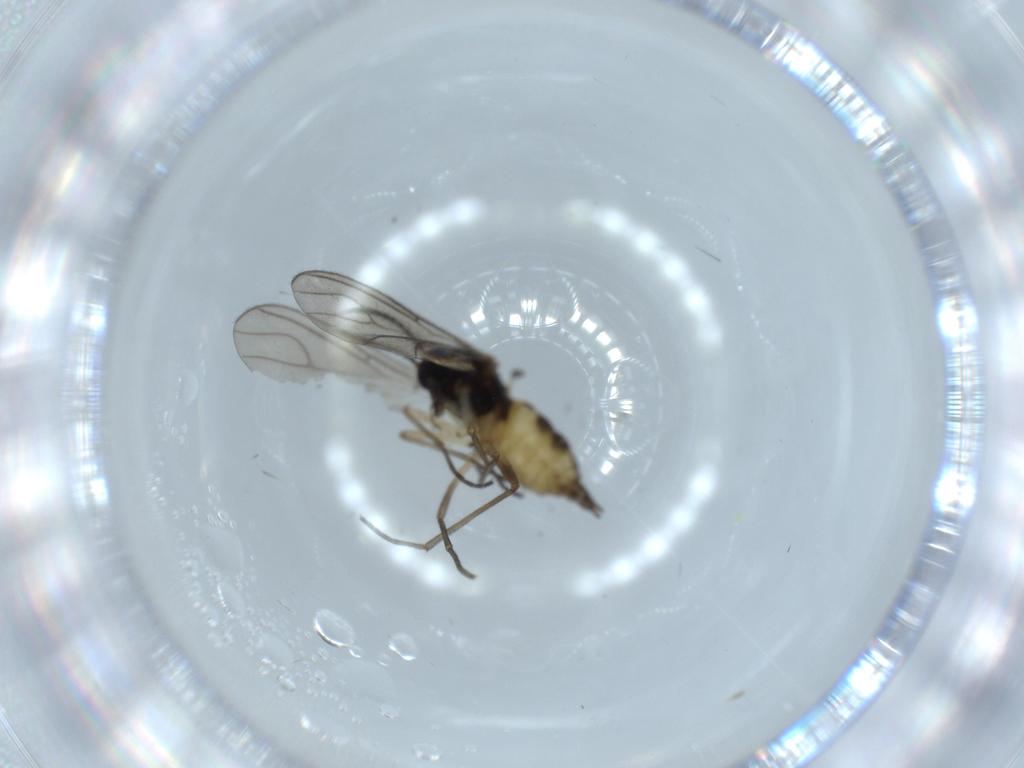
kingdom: Animalia
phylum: Arthropoda
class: Insecta
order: Diptera
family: Sciaridae
